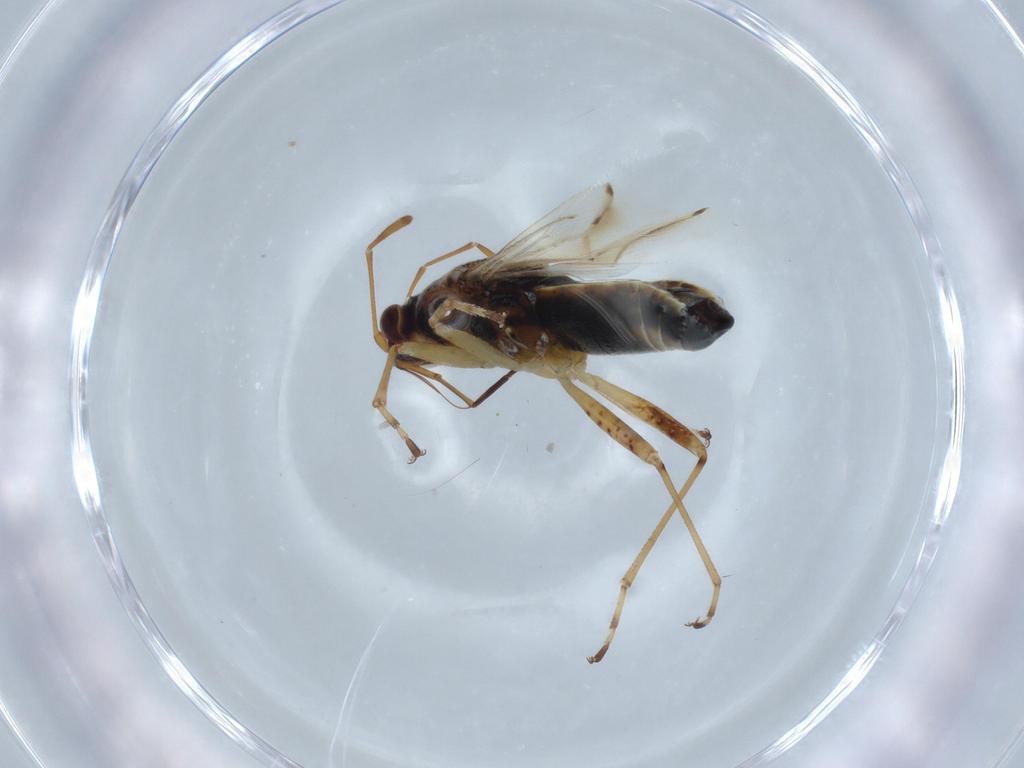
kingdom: Animalia
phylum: Arthropoda
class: Insecta
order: Hemiptera
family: Lygaeidae
